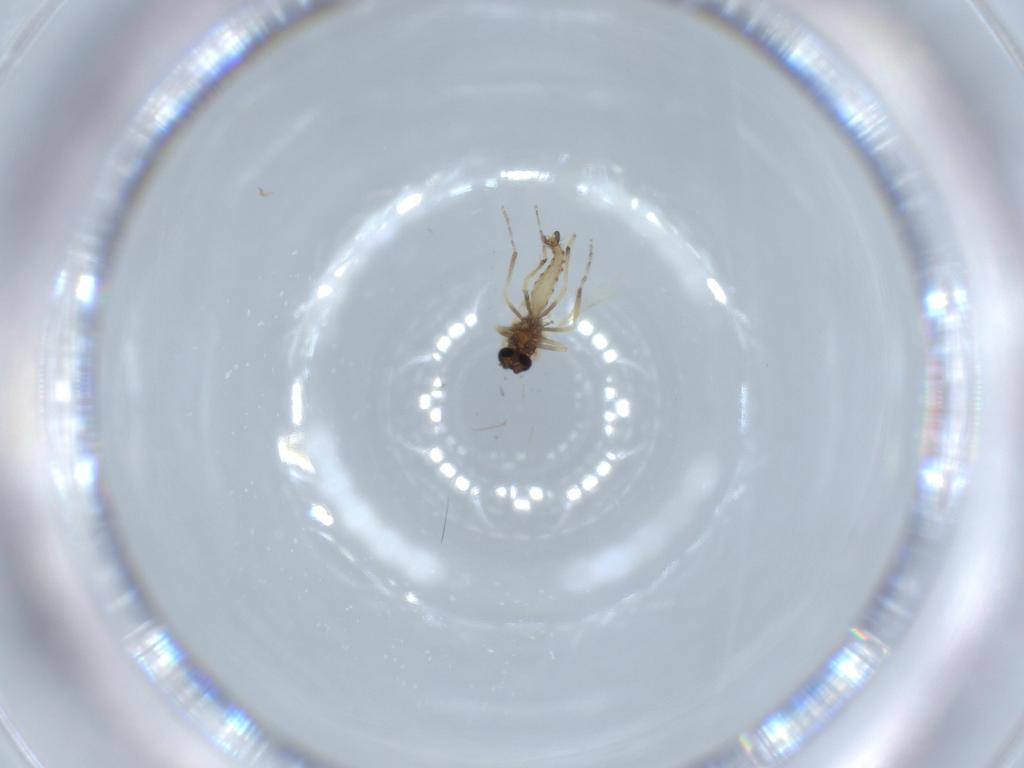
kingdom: Animalia
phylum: Arthropoda
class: Insecta
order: Diptera
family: Ceratopogonidae
